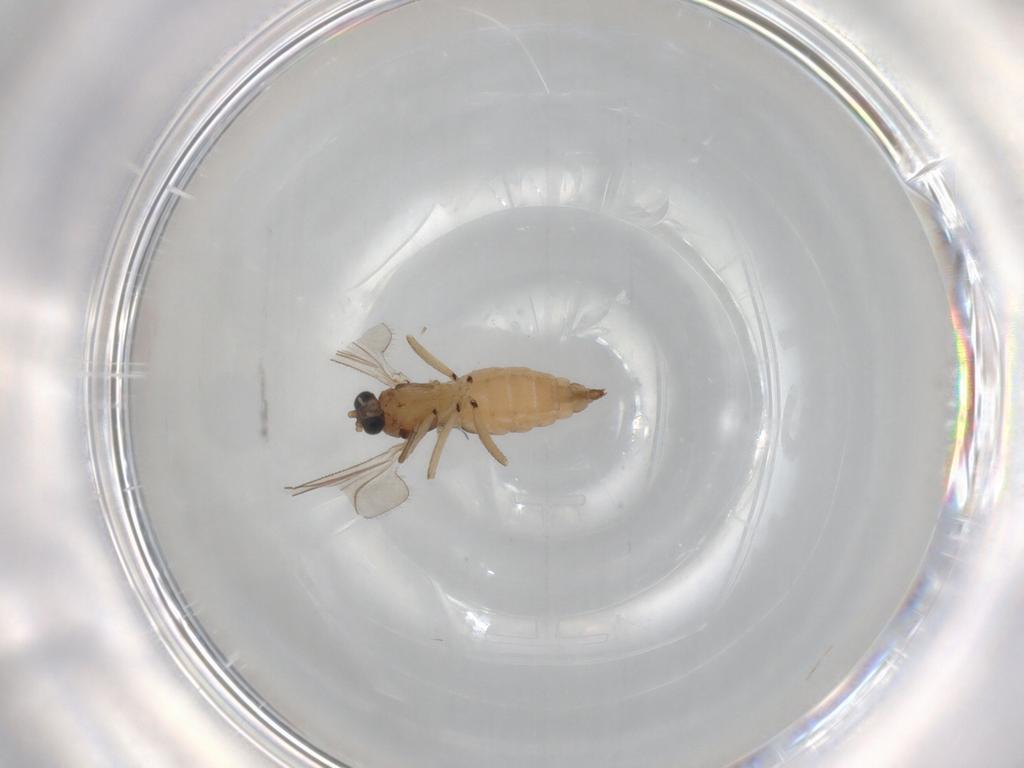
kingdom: Animalia
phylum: Arthropoda
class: Insecta
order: Diptera
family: Sciaridae
